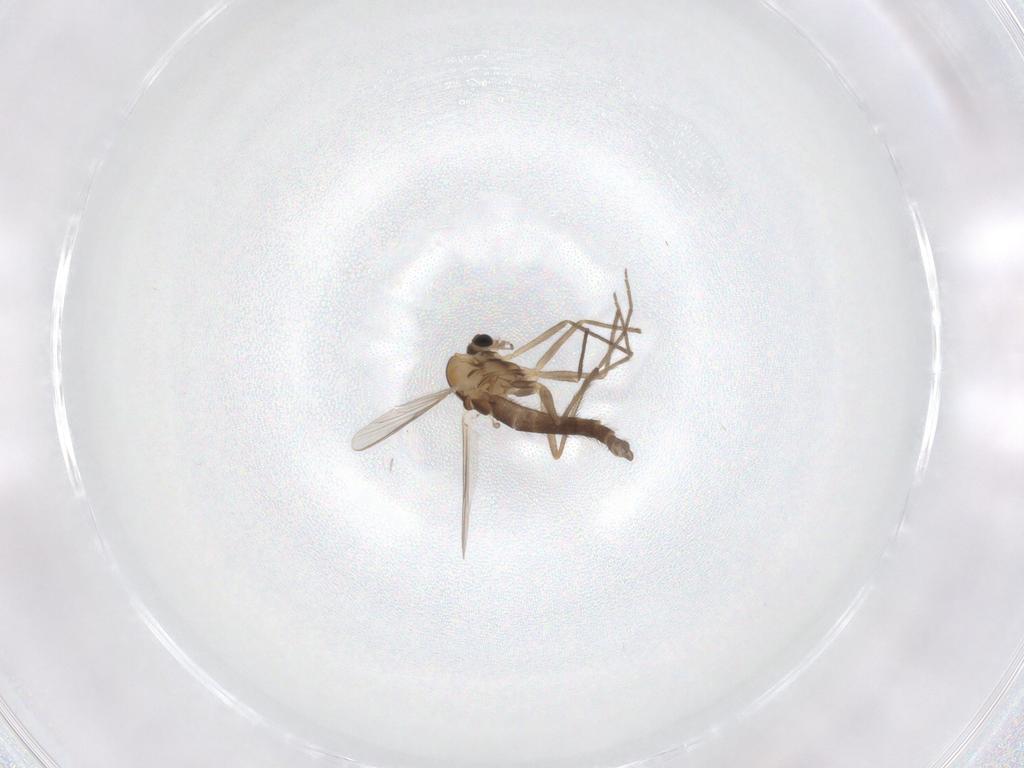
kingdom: Animalia
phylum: Arthropoda
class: Insecta
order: Diptera
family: Chironomidae
